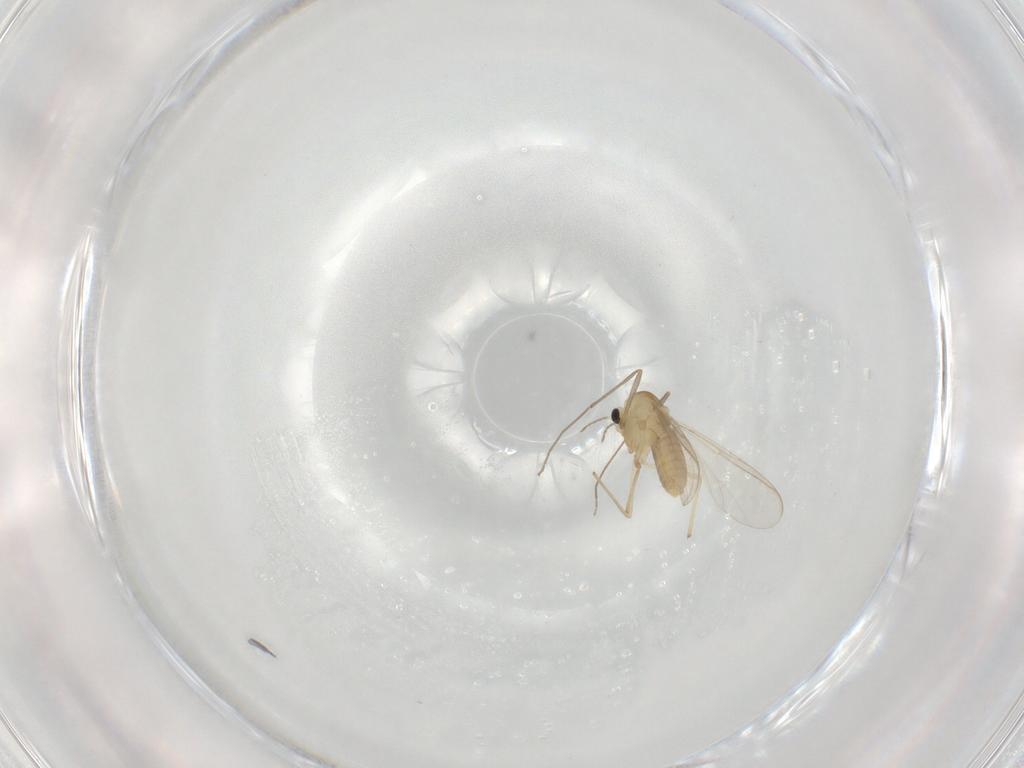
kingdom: Animalia
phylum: Arthropoda
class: Insecta
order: Diptera
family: Chironomidae
